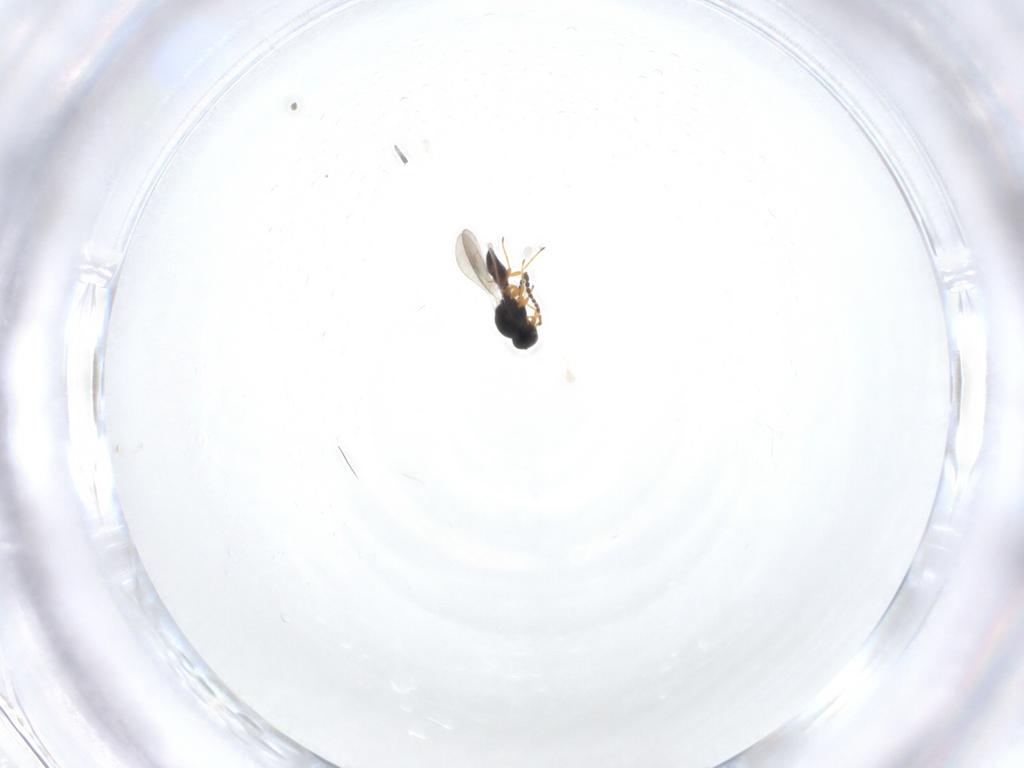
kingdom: Animalia
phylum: Arthropoda
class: Insecta
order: Hymenoptera
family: Platygastridae
